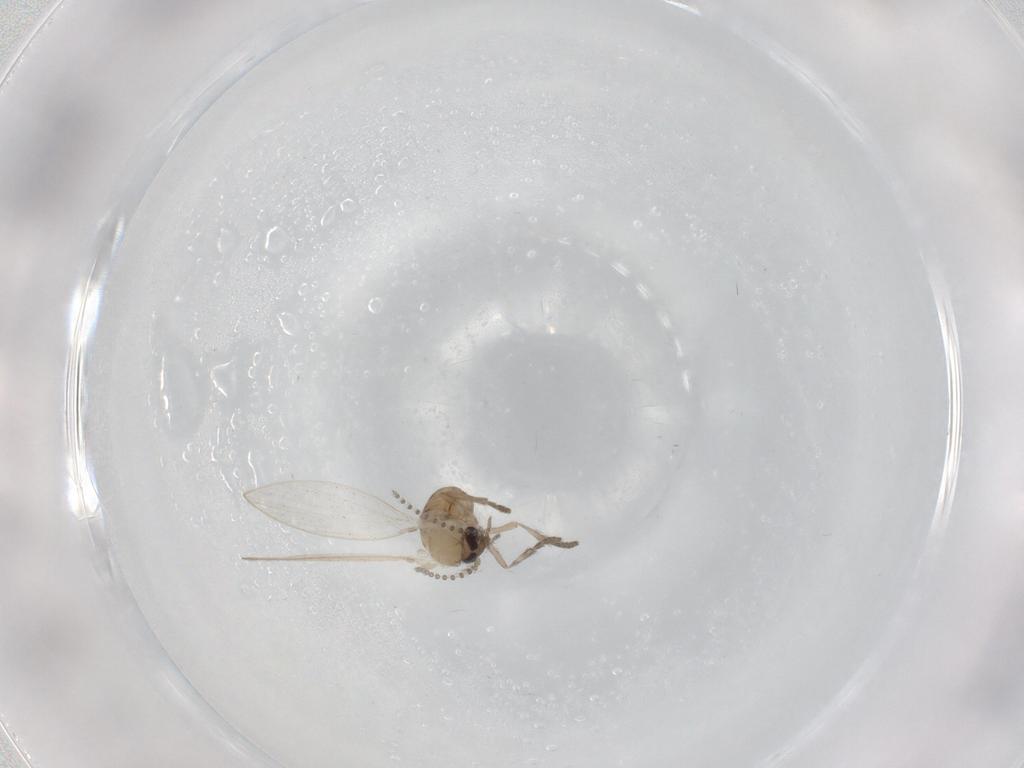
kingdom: Animalia
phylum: Arthropoda
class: Insecta
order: Diptera
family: Psychodidae
